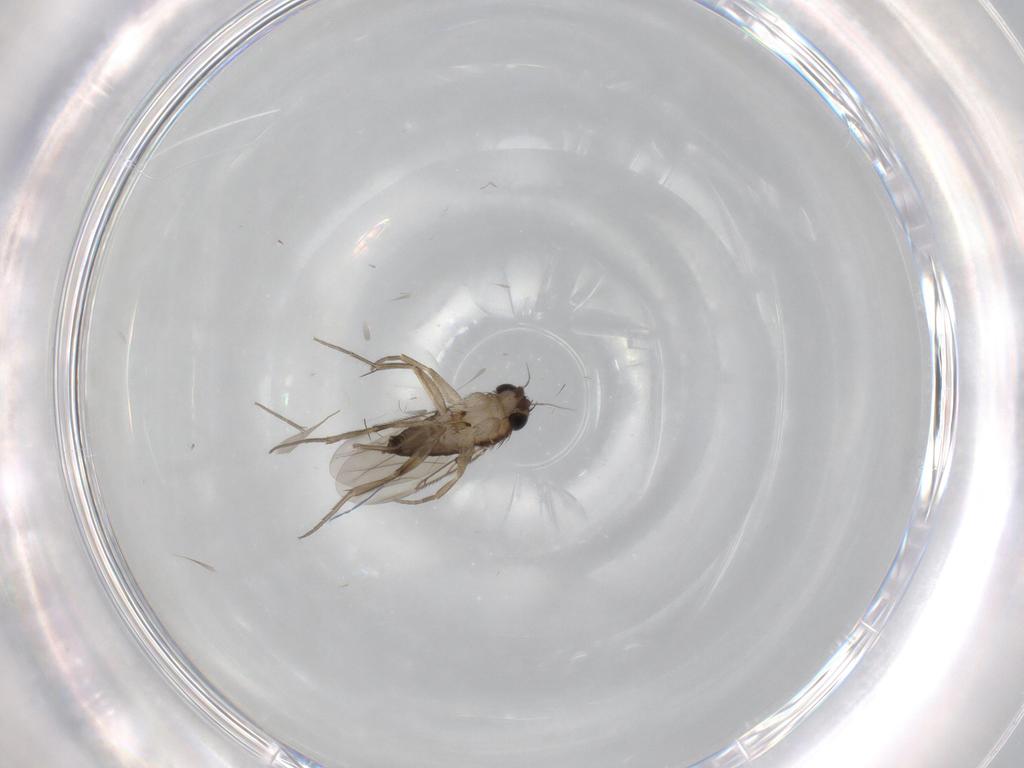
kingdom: Animalia
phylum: Arthropoda
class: Insecta
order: Diptera
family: Phoridae
